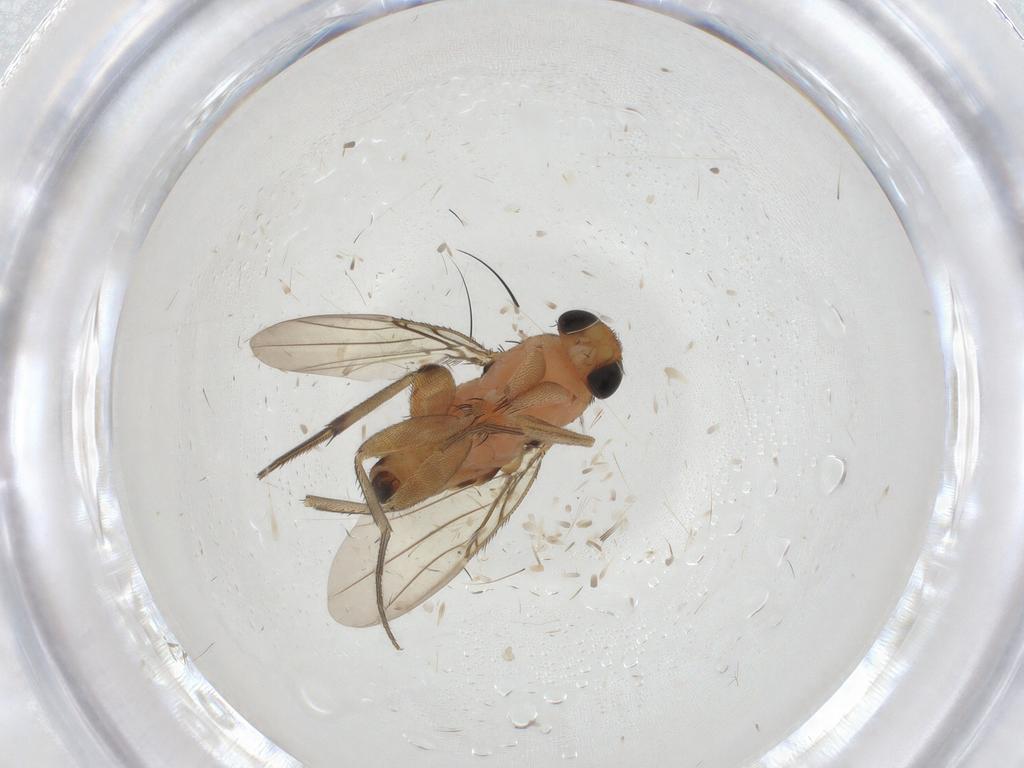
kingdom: Animalia
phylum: Arthropoda
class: Insecta
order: Diptera
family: Phoridae
